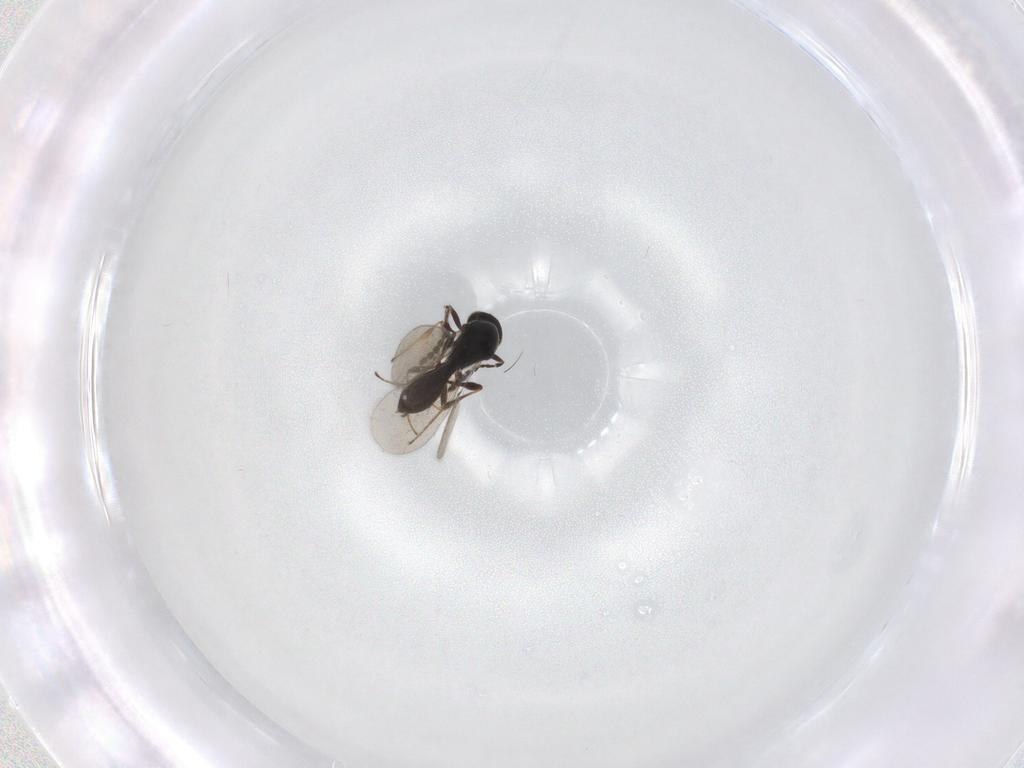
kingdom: Animalia
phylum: Arthropoda
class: Insecta
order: Hymenoptera
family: Platygastridae
